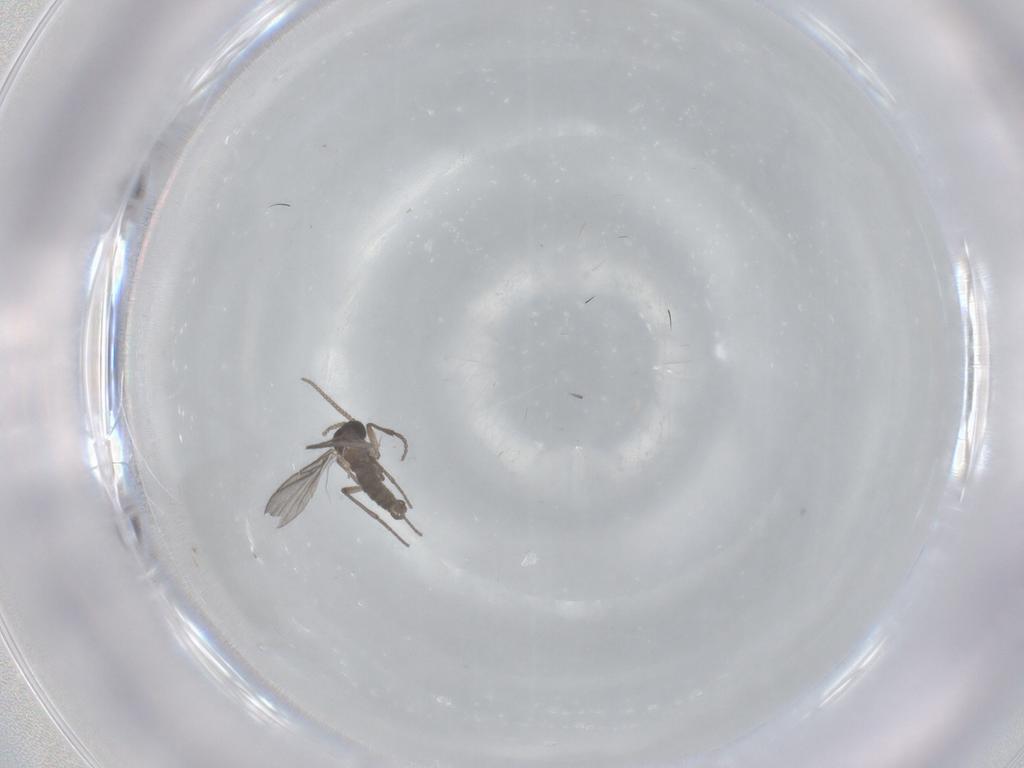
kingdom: Animalia
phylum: Arthropoda
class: Insecta
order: Diptera
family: Sciaridae
